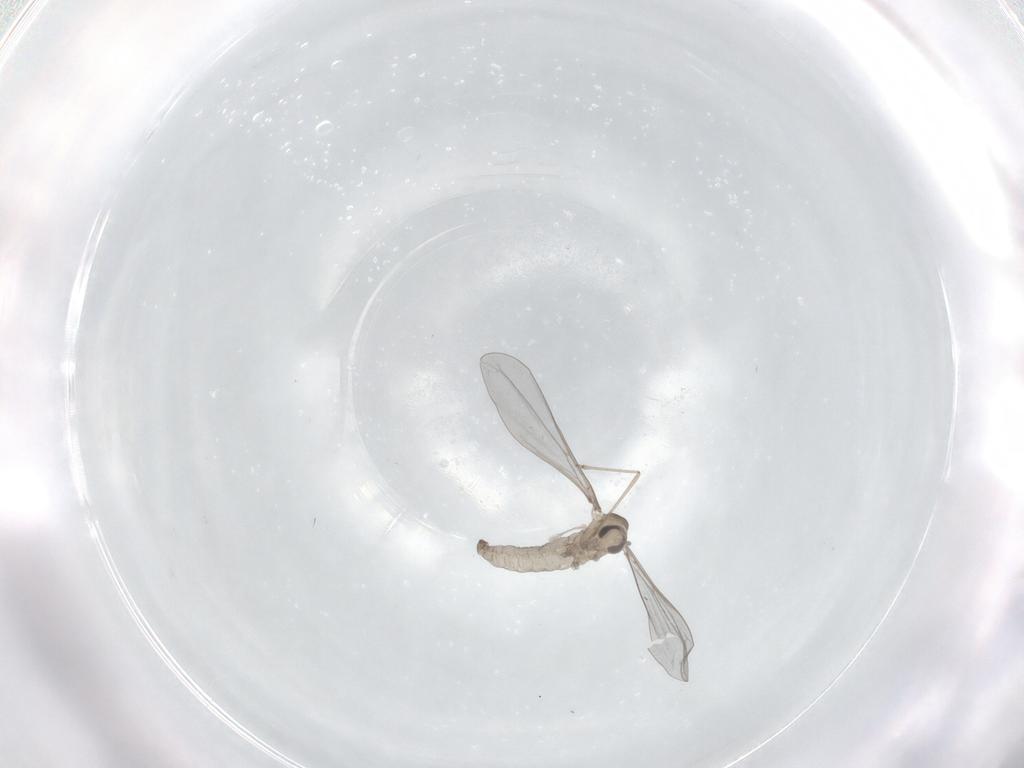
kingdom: Animalia
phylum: Arthropoda
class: Insecta
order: Diptera
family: Cecidomyiidae
